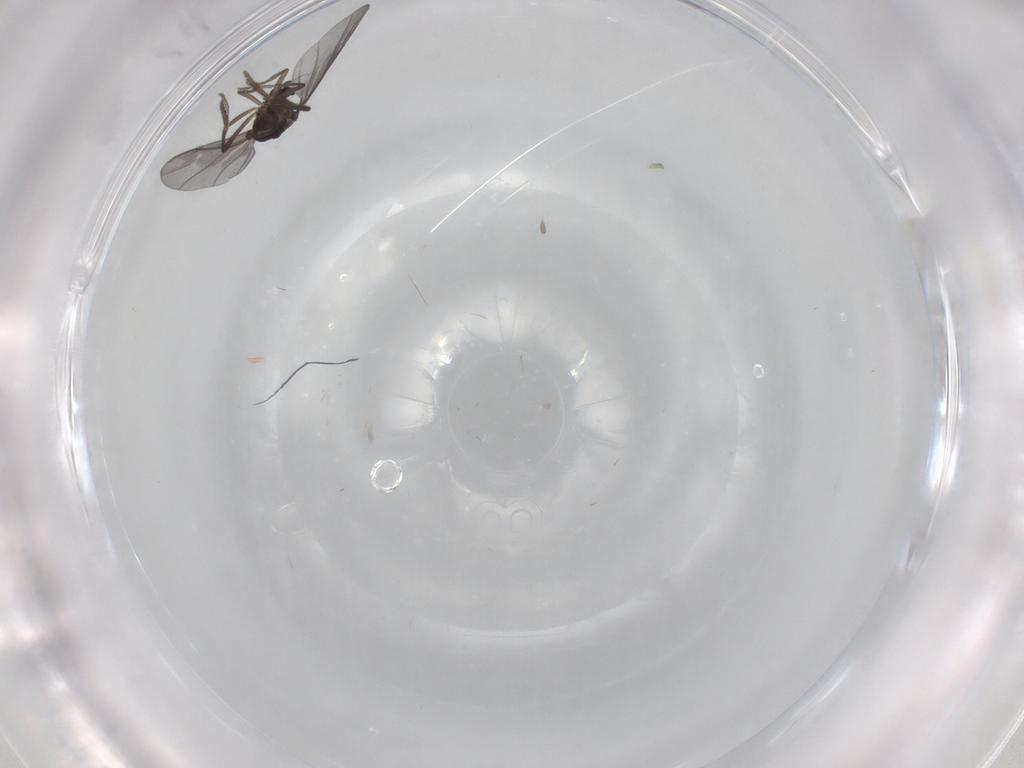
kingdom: Animalia
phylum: Arthropoda
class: Insecta
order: Diptera
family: Phoridae
